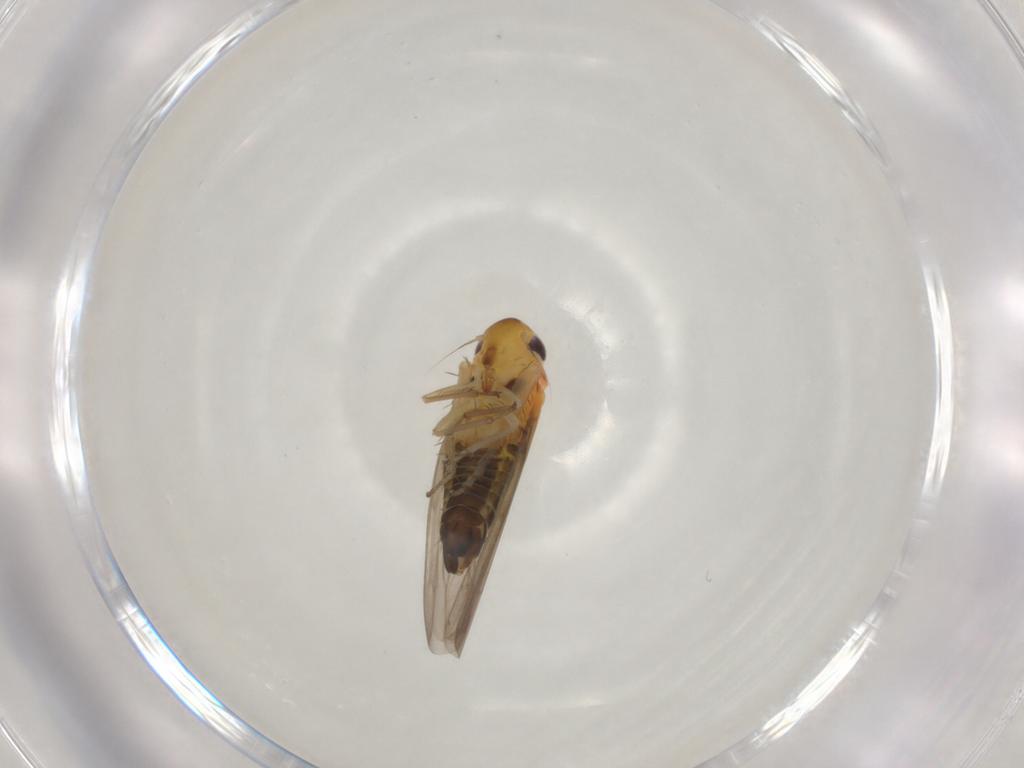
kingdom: Animalia
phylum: Arthropoda
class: Insecta
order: Hemiptera
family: Cicadellidae
